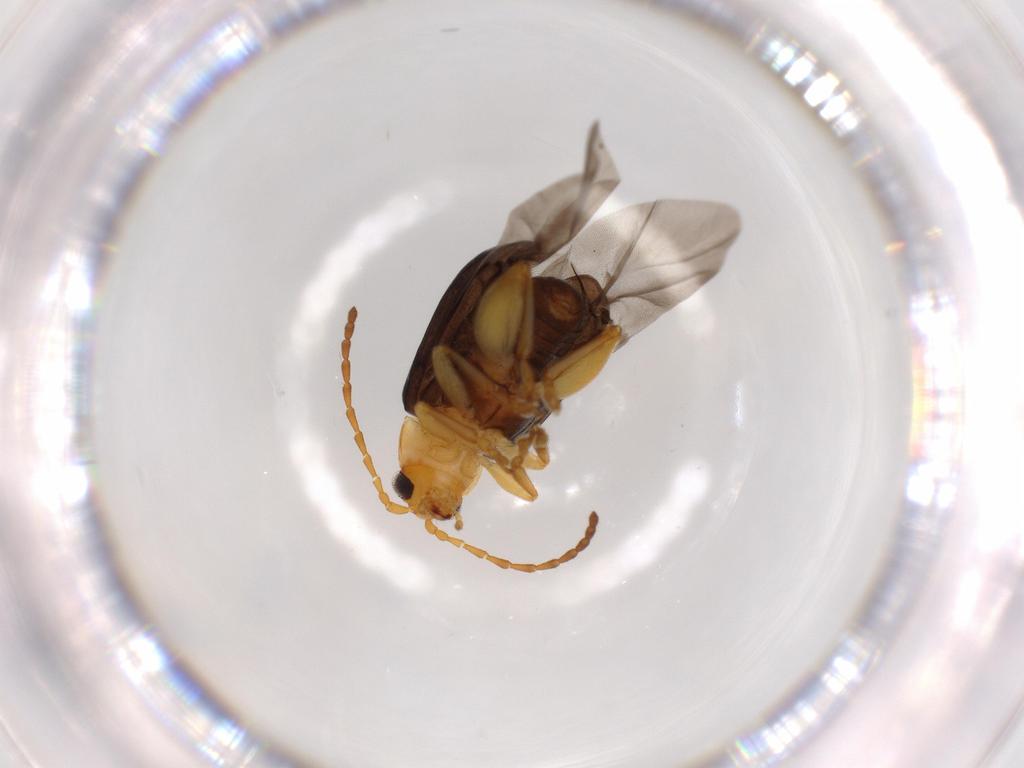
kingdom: Animalia
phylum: Arthropoda
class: Insecta
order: Coleoptera
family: Chrysomelidae
